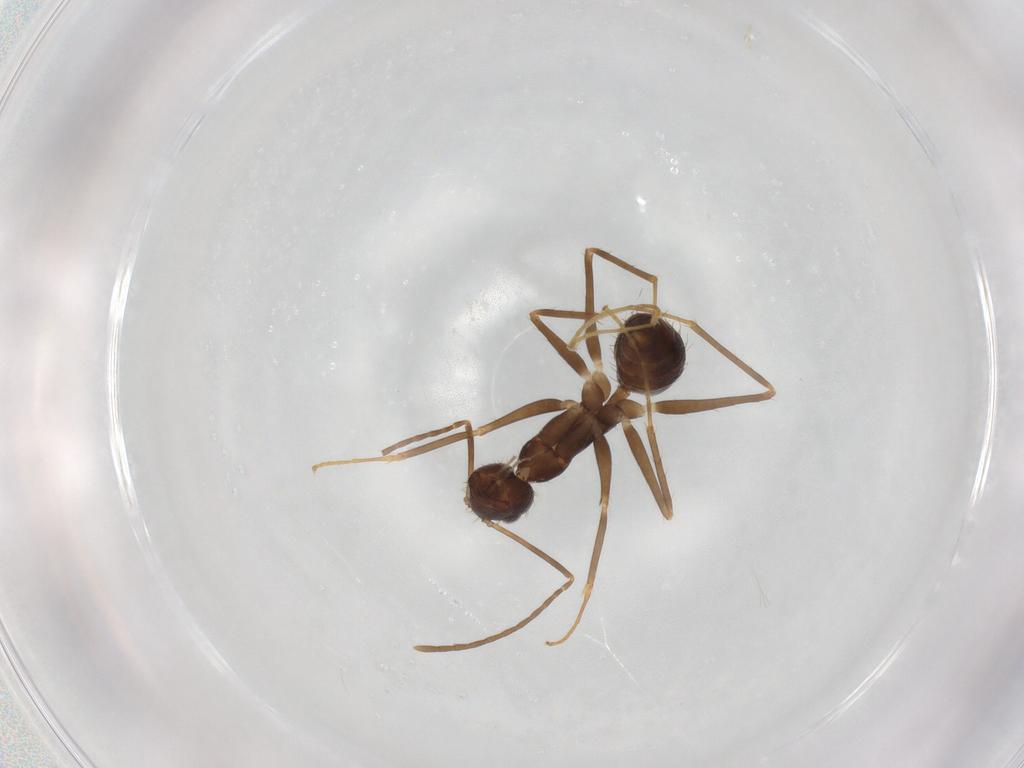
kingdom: Animalia
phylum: Arthropoda
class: Insecta
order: Hymenoptera
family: Formicidae
